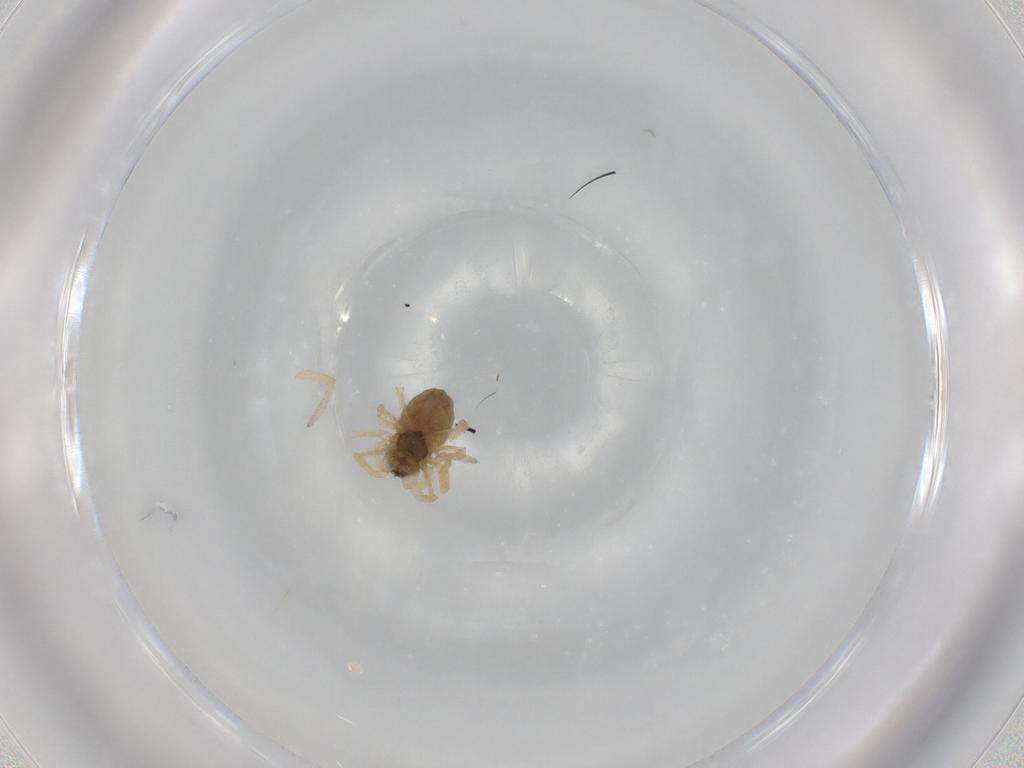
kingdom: Animalia
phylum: Arthropoda
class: Arachnida
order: Araneae
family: Linyphiidae
